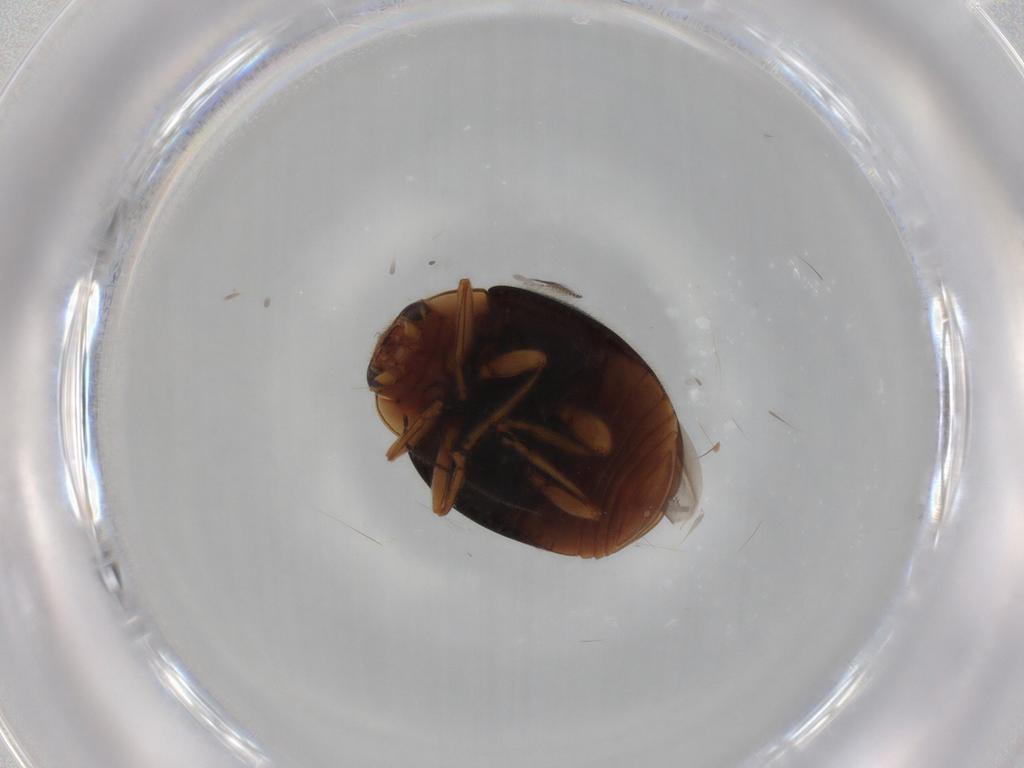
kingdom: Animalia
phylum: Arthropoda
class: Insecta
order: Coleoptera
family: Coccinellidae
